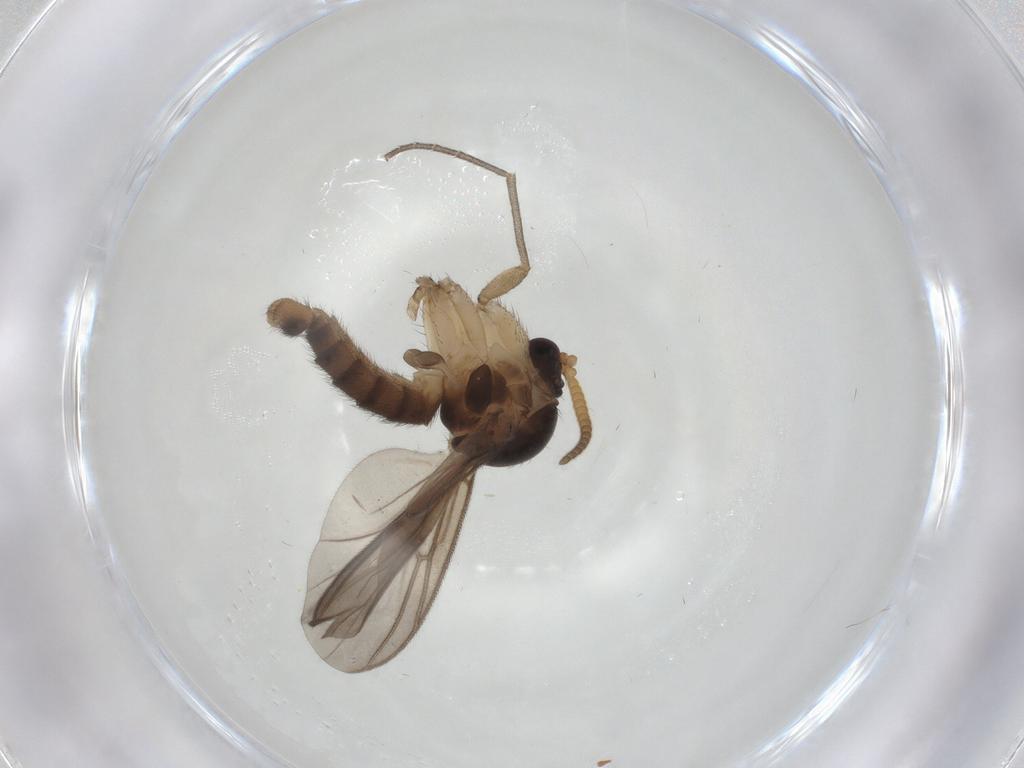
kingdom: Animalia
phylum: Arthropoda
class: Insecta
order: Diptera
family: Mycetophilidae
